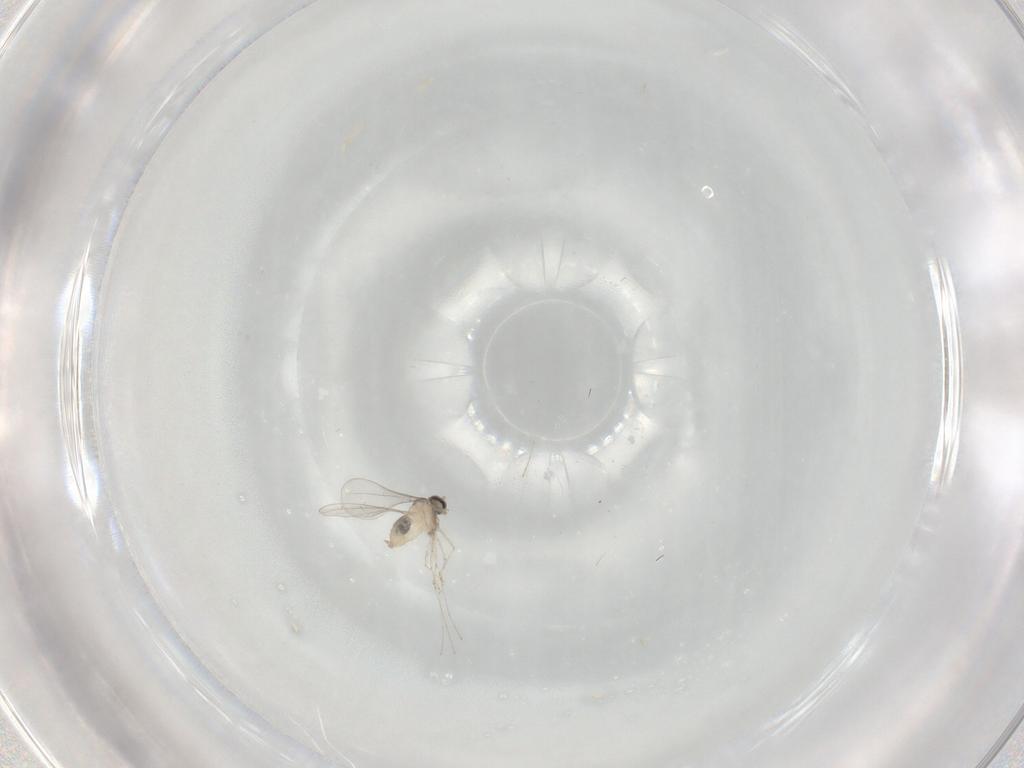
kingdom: Animalia
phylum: Arthropoda
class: Insecta
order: Diptera
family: Cecidomyiidae
